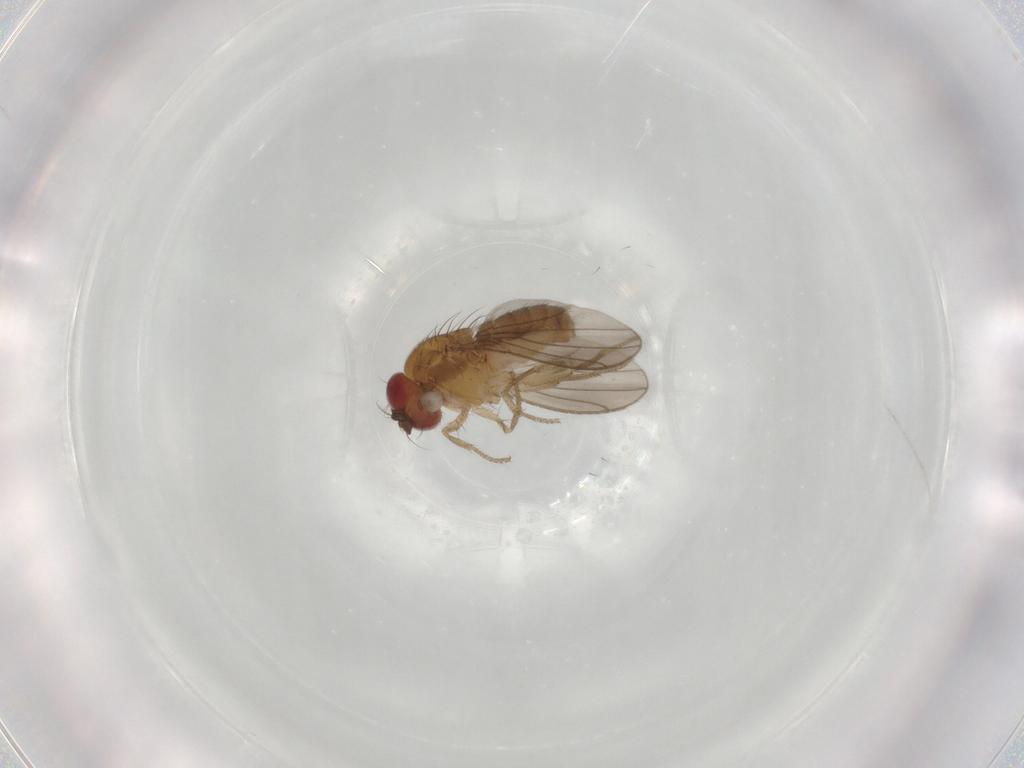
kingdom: Animalia
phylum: Arthropoda
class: Insecta
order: Diptera
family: Drosophilidae
